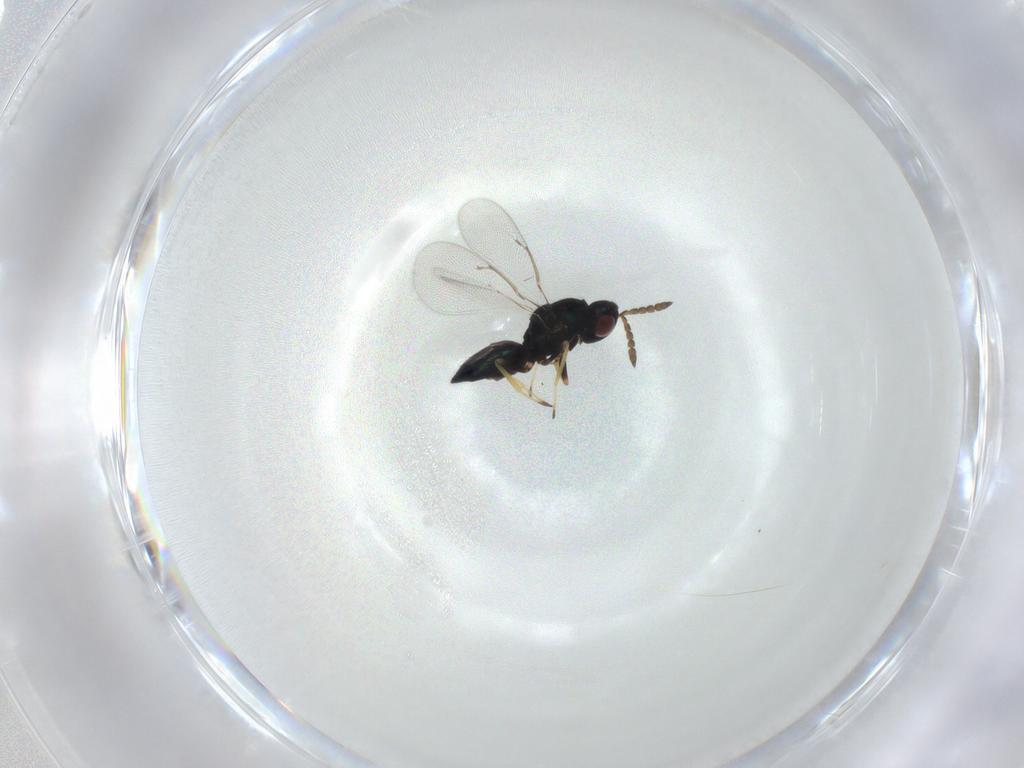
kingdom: Animalia
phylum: Arthropoda
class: Insecta
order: Hymenoptera
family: Eulophidae
